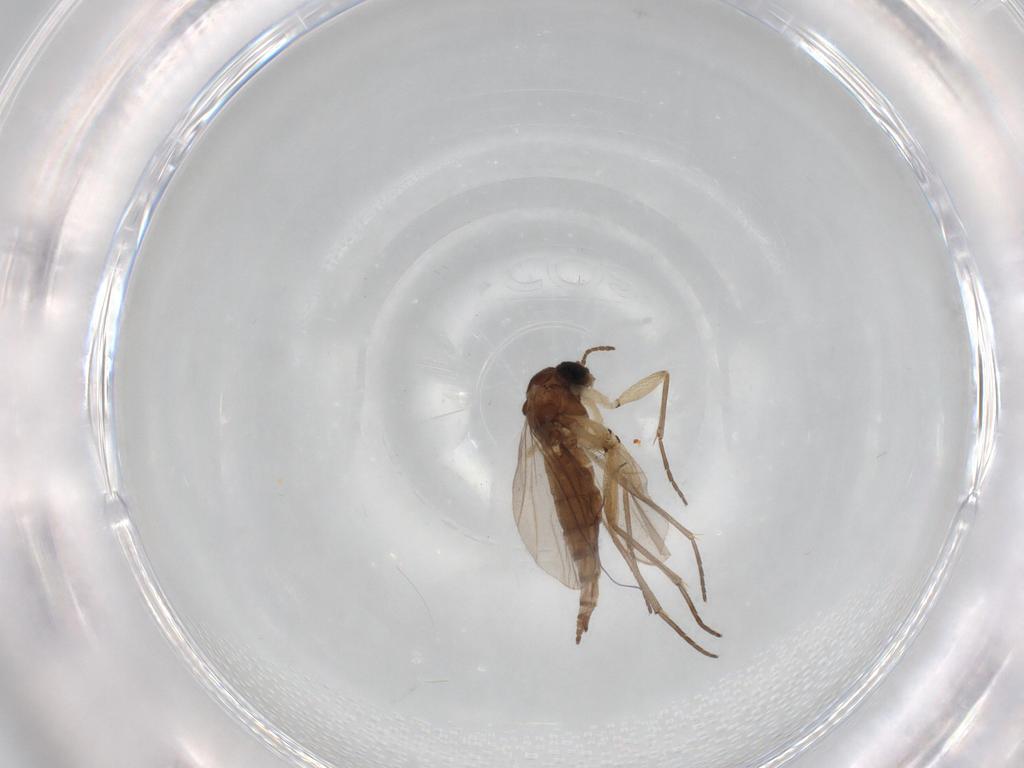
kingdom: Animalia
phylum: Arthropoda
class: Insecta
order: Diptera
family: Sciaridae
